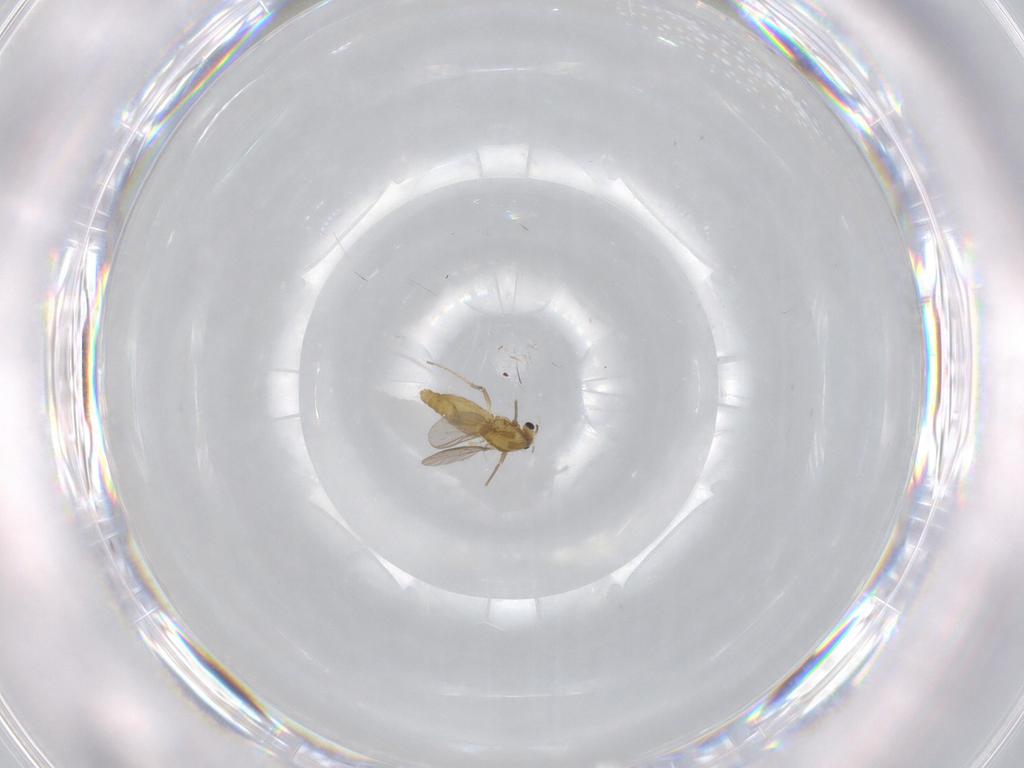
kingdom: Animalia
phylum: Arthropoda
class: Insecta
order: Diptera
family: Chironomidae
